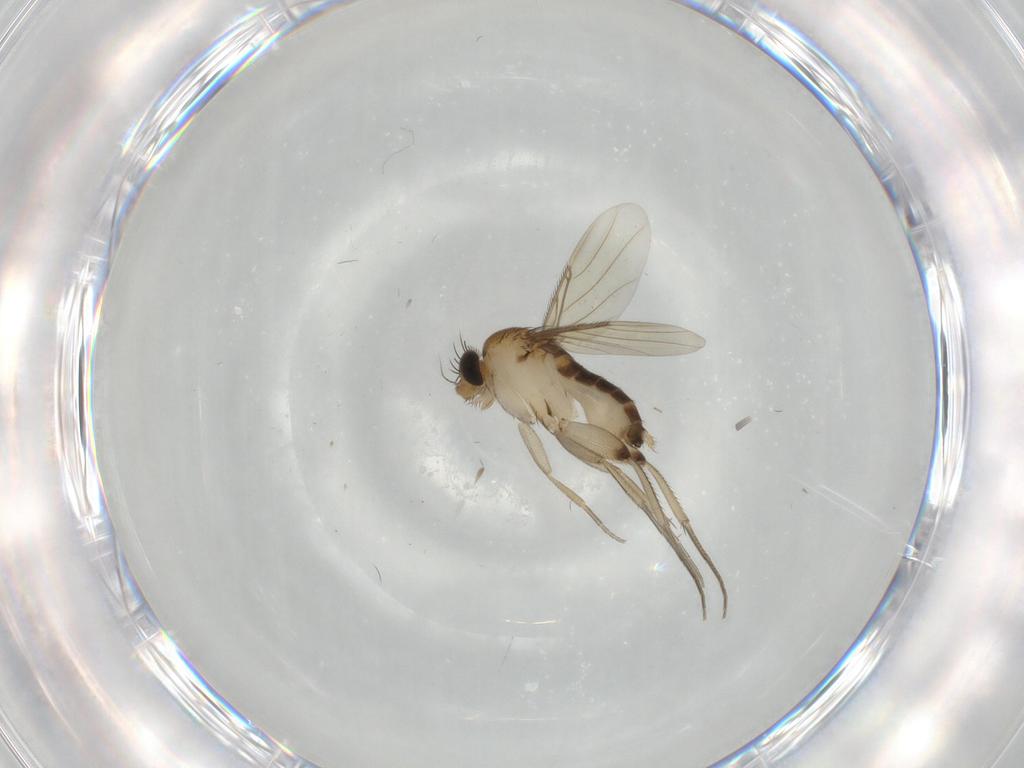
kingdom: Animalia
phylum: Arthropoda
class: Insecta
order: Diptera
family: Phoridae
